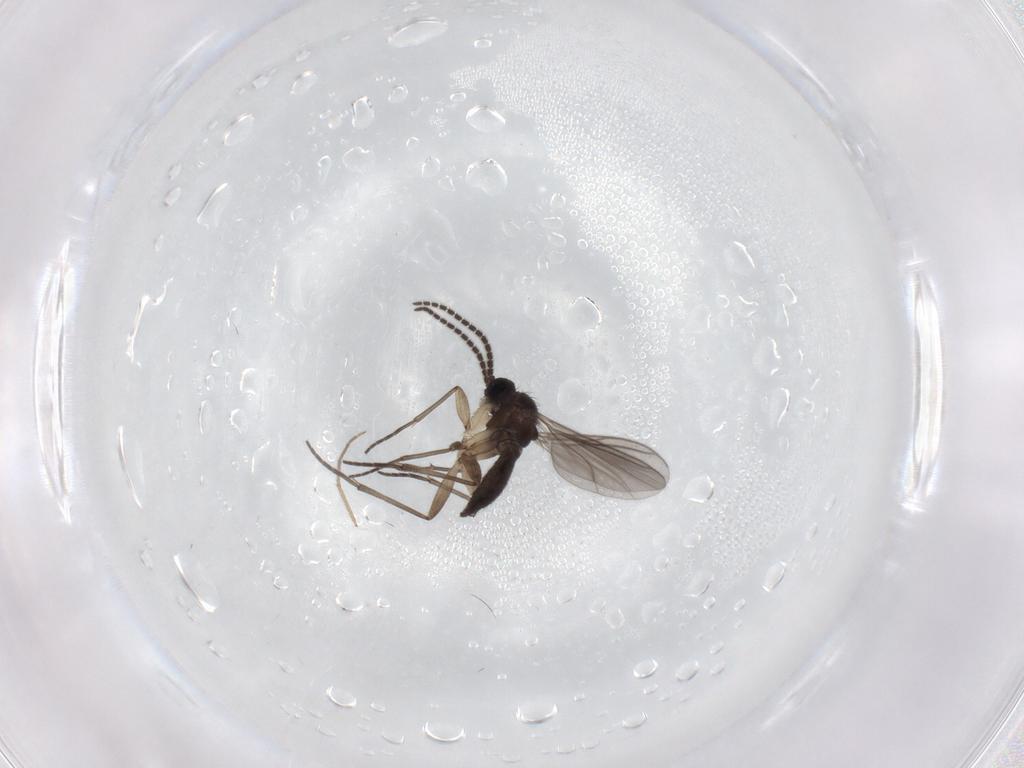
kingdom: Animalia
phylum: Arthropoda
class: Insecta
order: Diptera
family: Sciaridae
